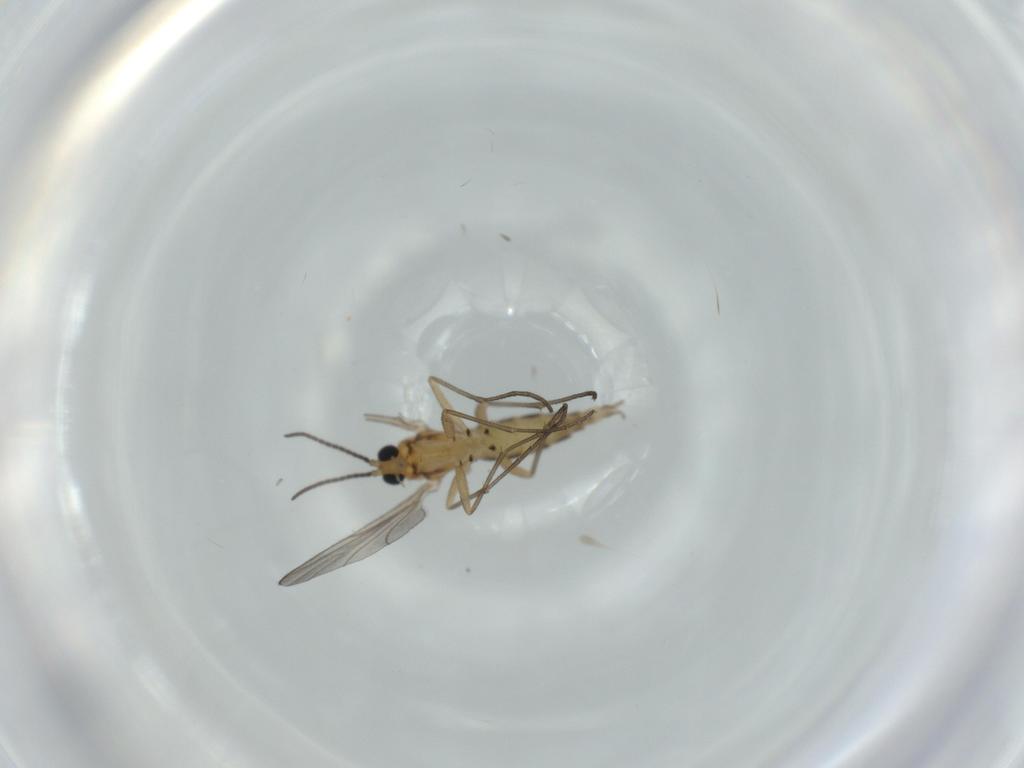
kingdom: Animalia
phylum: Arthropoda
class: Insecta
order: Diptera
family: Sciaridae
